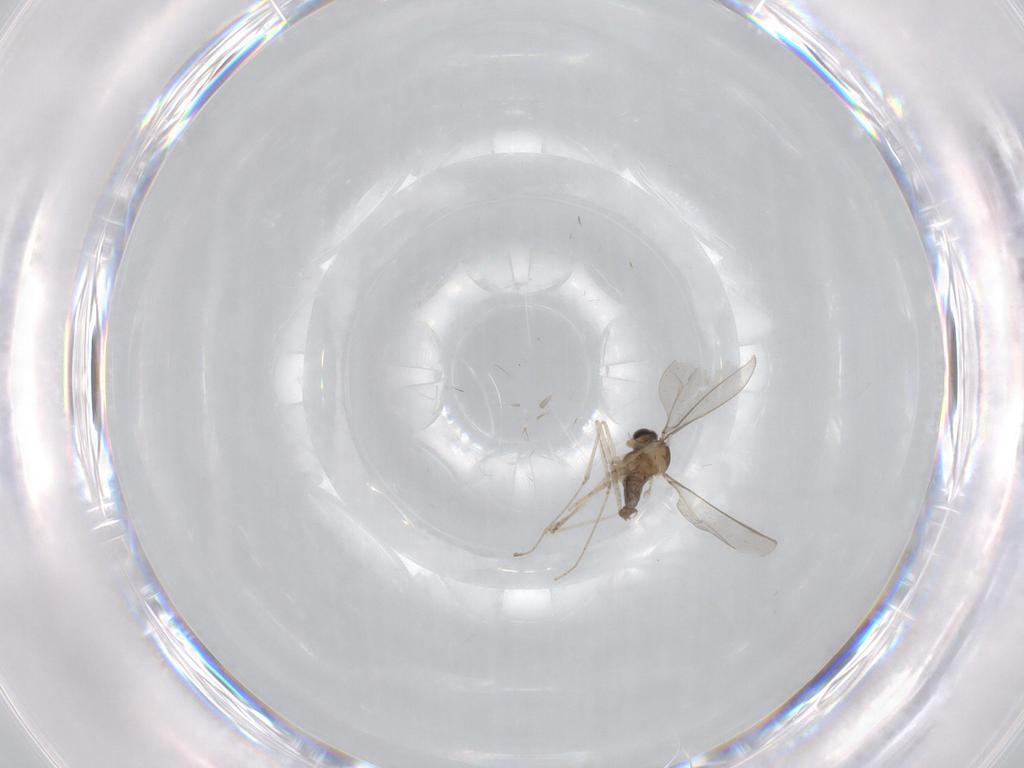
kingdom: Animalia
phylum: Arthropoda
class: Insecta
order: Diptera
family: Cecidomyiidae
